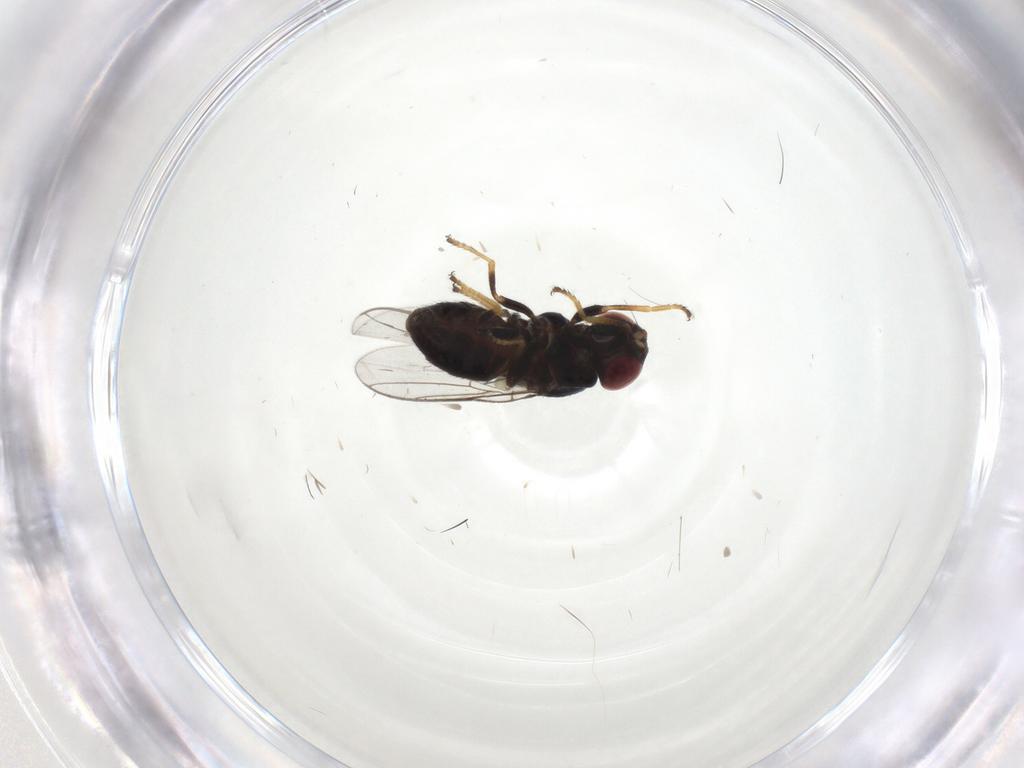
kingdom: Animalia
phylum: Arthropoda
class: Insecta
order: Diptera
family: Chloropidae
